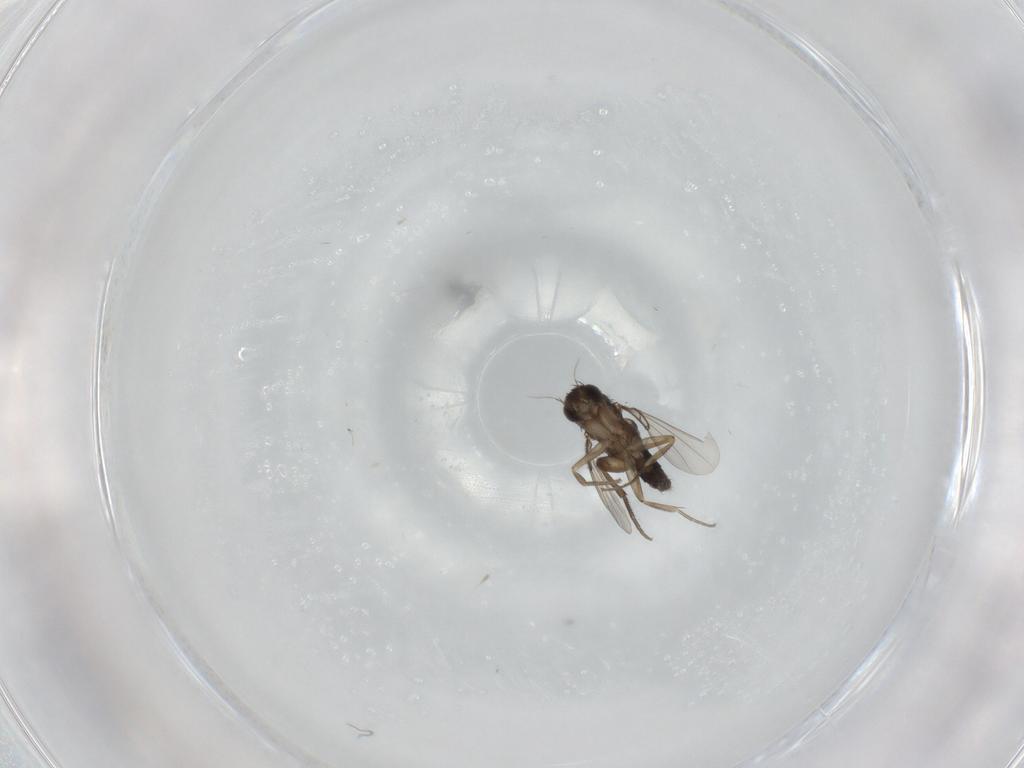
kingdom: Animalia
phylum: Arthropoda
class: Insecta
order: Diptera
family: Phoridae
